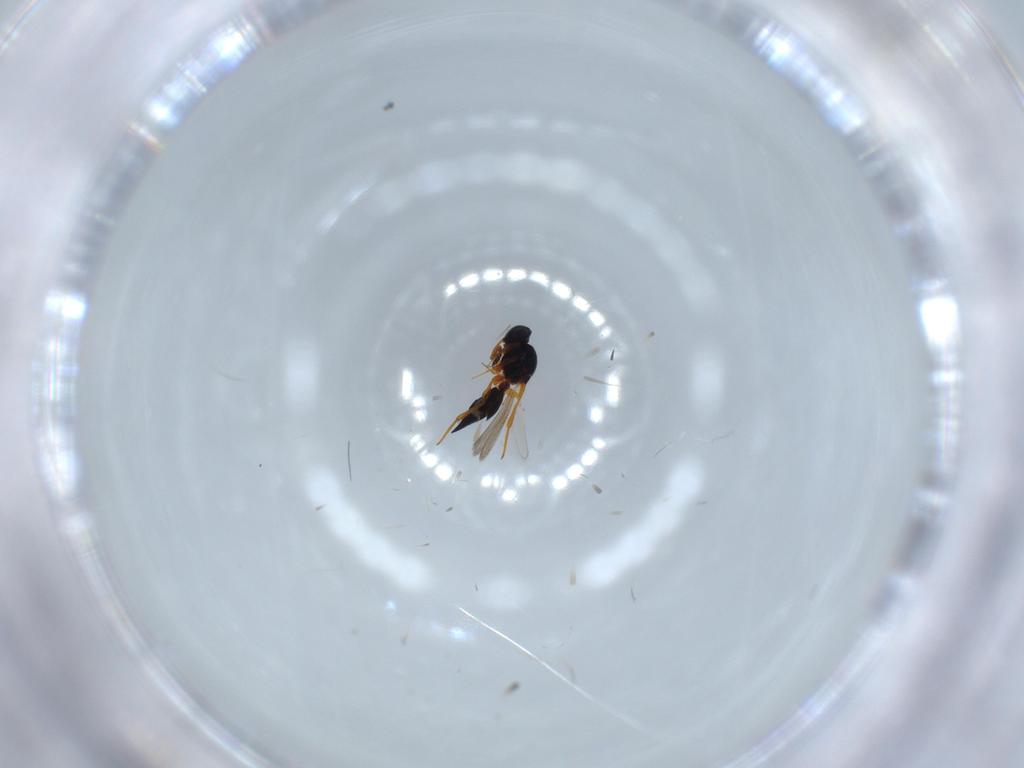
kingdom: Animalia
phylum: Arthropoda
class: Insecta
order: Hymenoptera
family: Platygastridae
